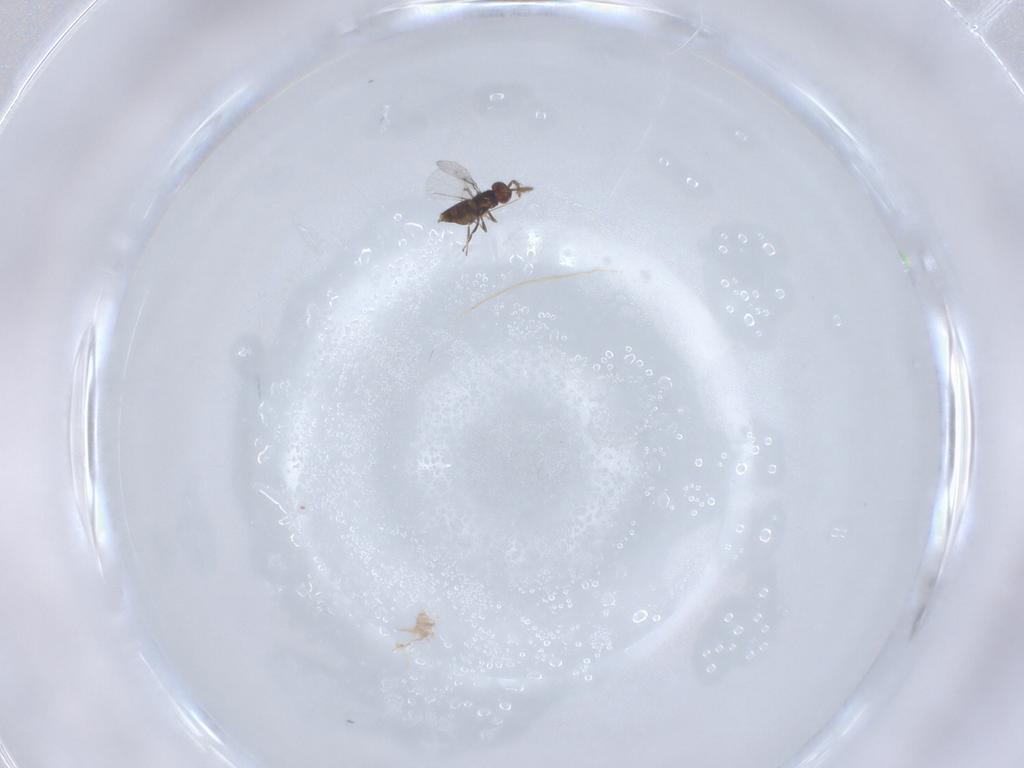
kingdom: Animalia
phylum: Arthropoda
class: Insecta
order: Hymenoptera
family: Agaonidae
